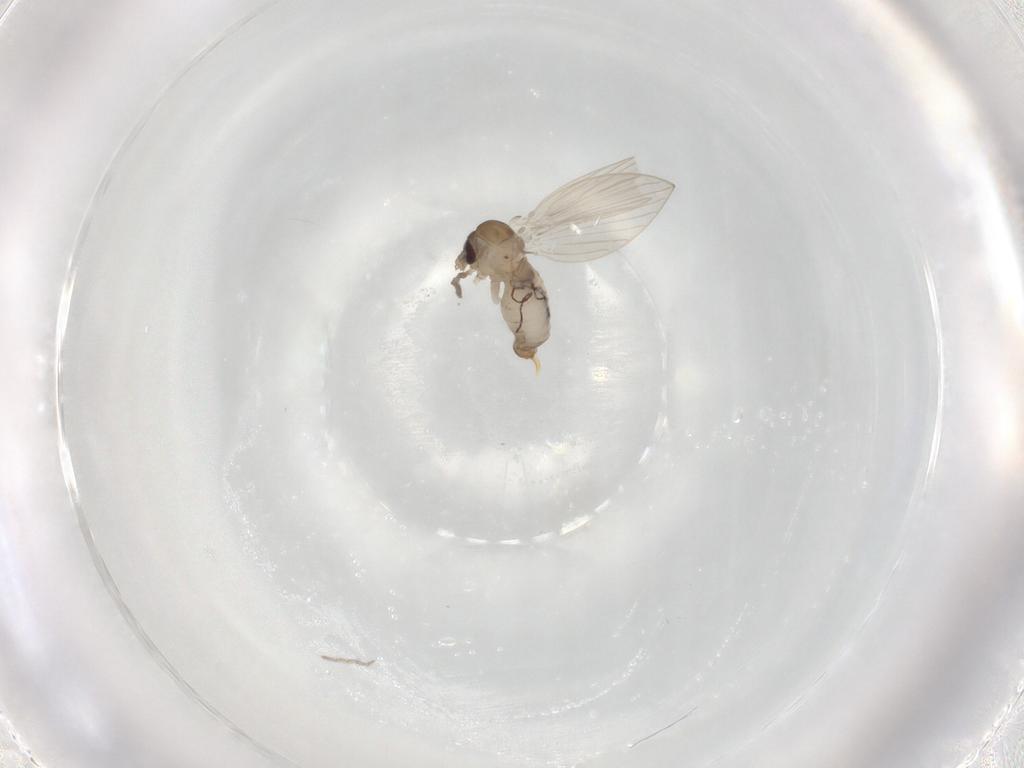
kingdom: Animalia
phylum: Arthropoda
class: Insecta
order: Diptera
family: Psychodidae
